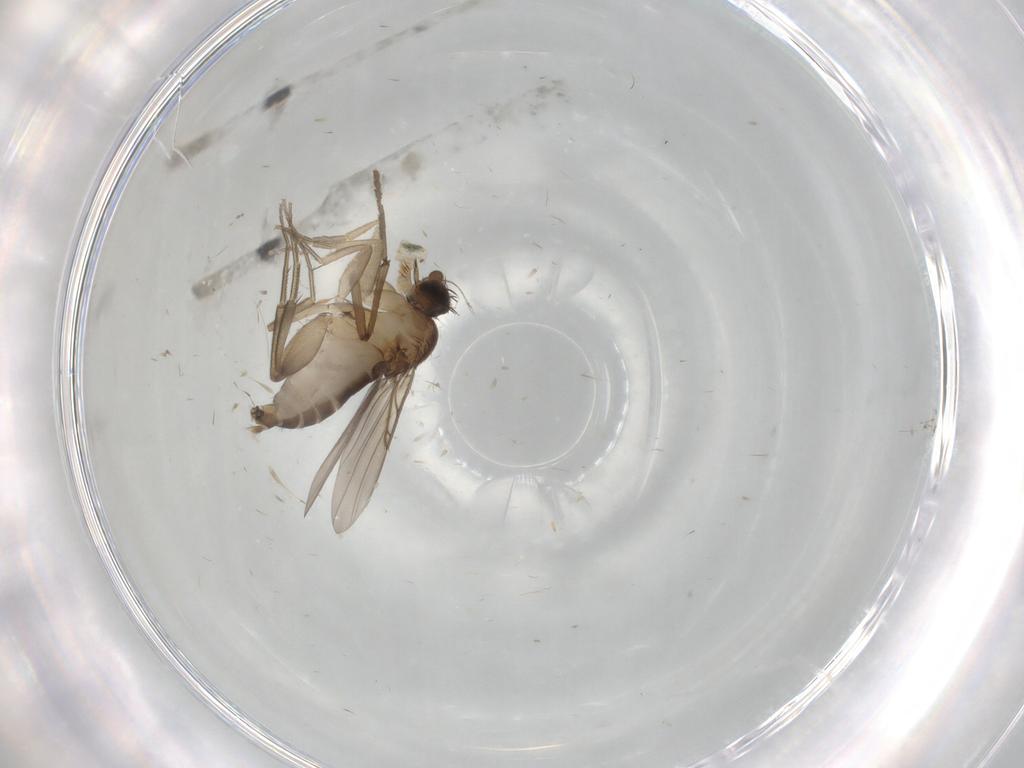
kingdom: Animalia
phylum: Arthropoda
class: Insecta
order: Diptera
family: Phoridae
